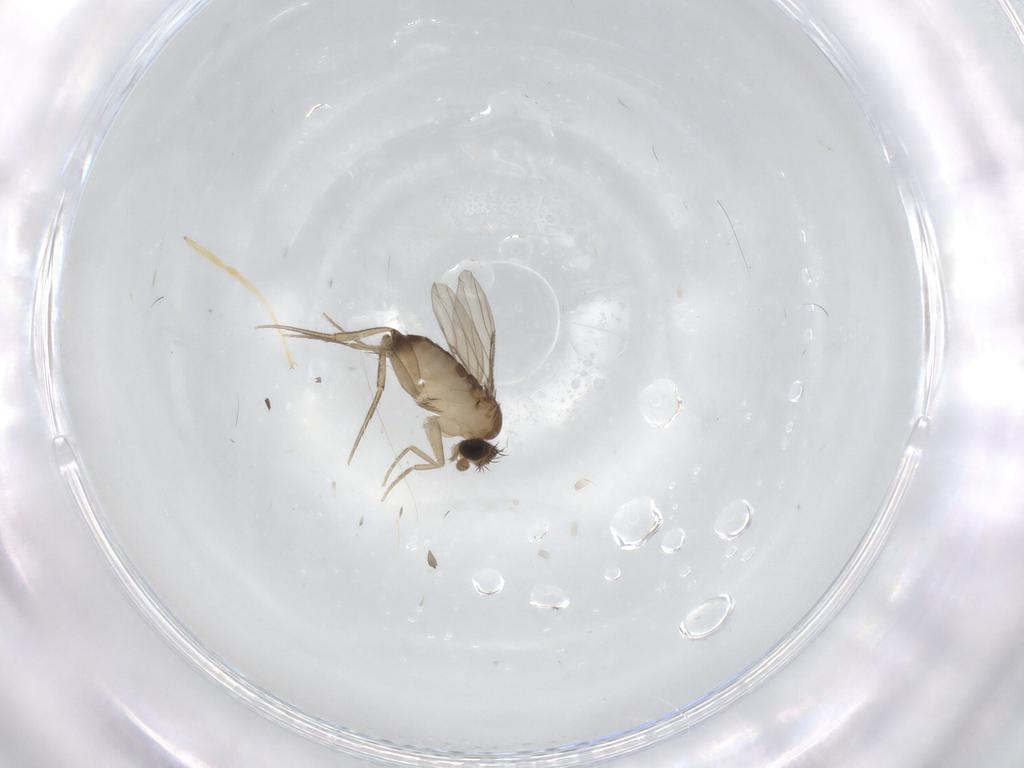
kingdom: Animalia
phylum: Arthropoda
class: Insecta
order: Diptera
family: Phoridae
